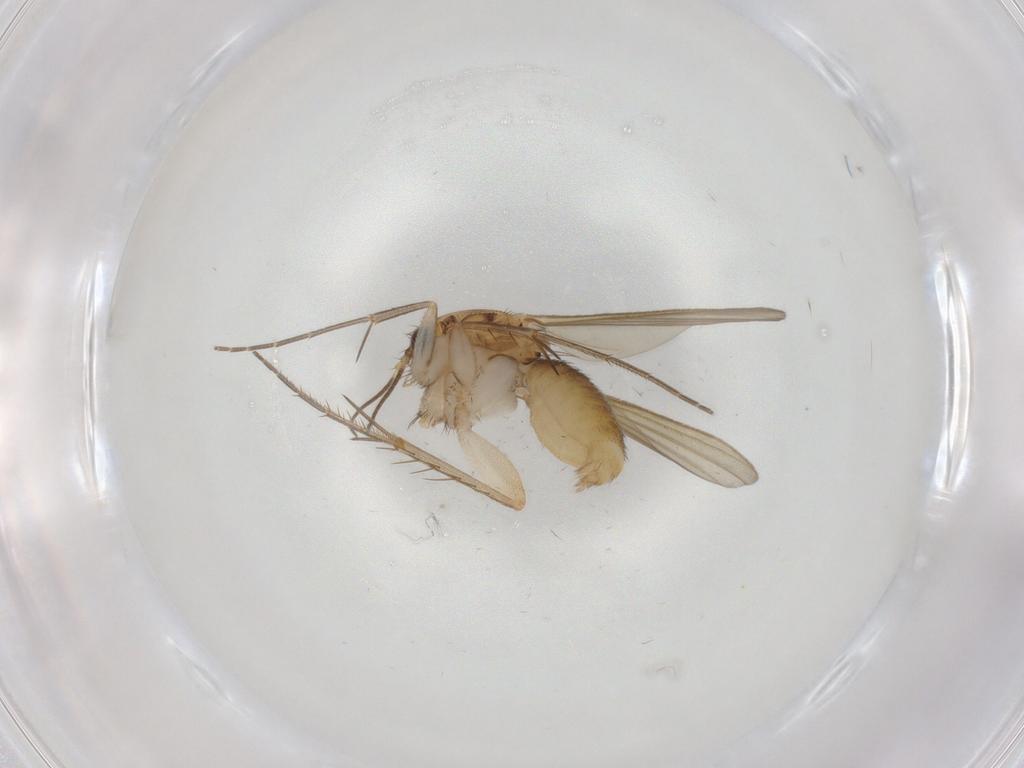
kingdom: Animalia
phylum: Arthropoda
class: Insecta
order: Diptera
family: Mycetophilidae
